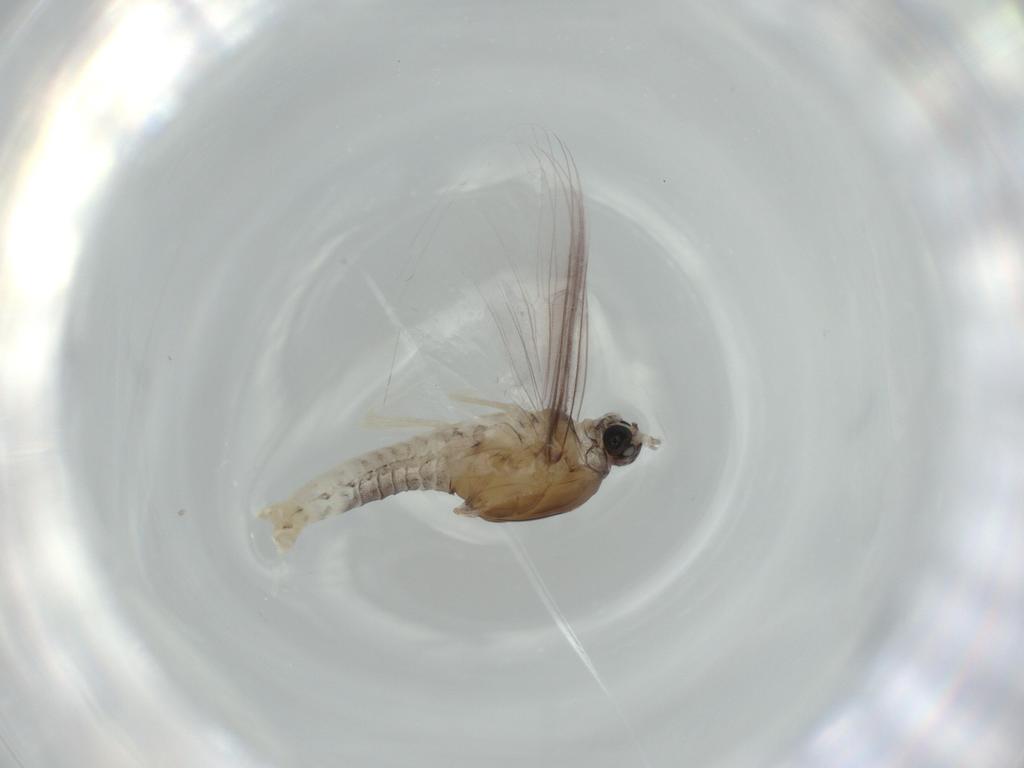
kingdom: Animalia
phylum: Arthropoda
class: Insecta
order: Ephemeroptera
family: Caenidae
